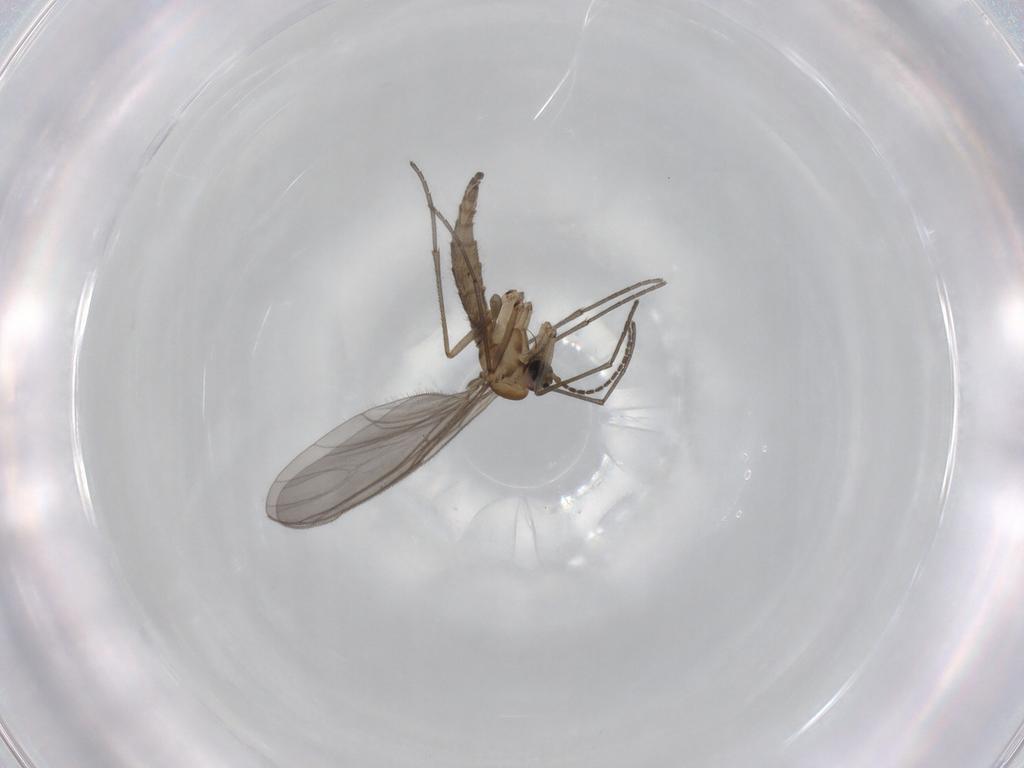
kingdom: Animalia
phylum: Arthropoda
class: Insecta
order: Diptera
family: Sciaridae
